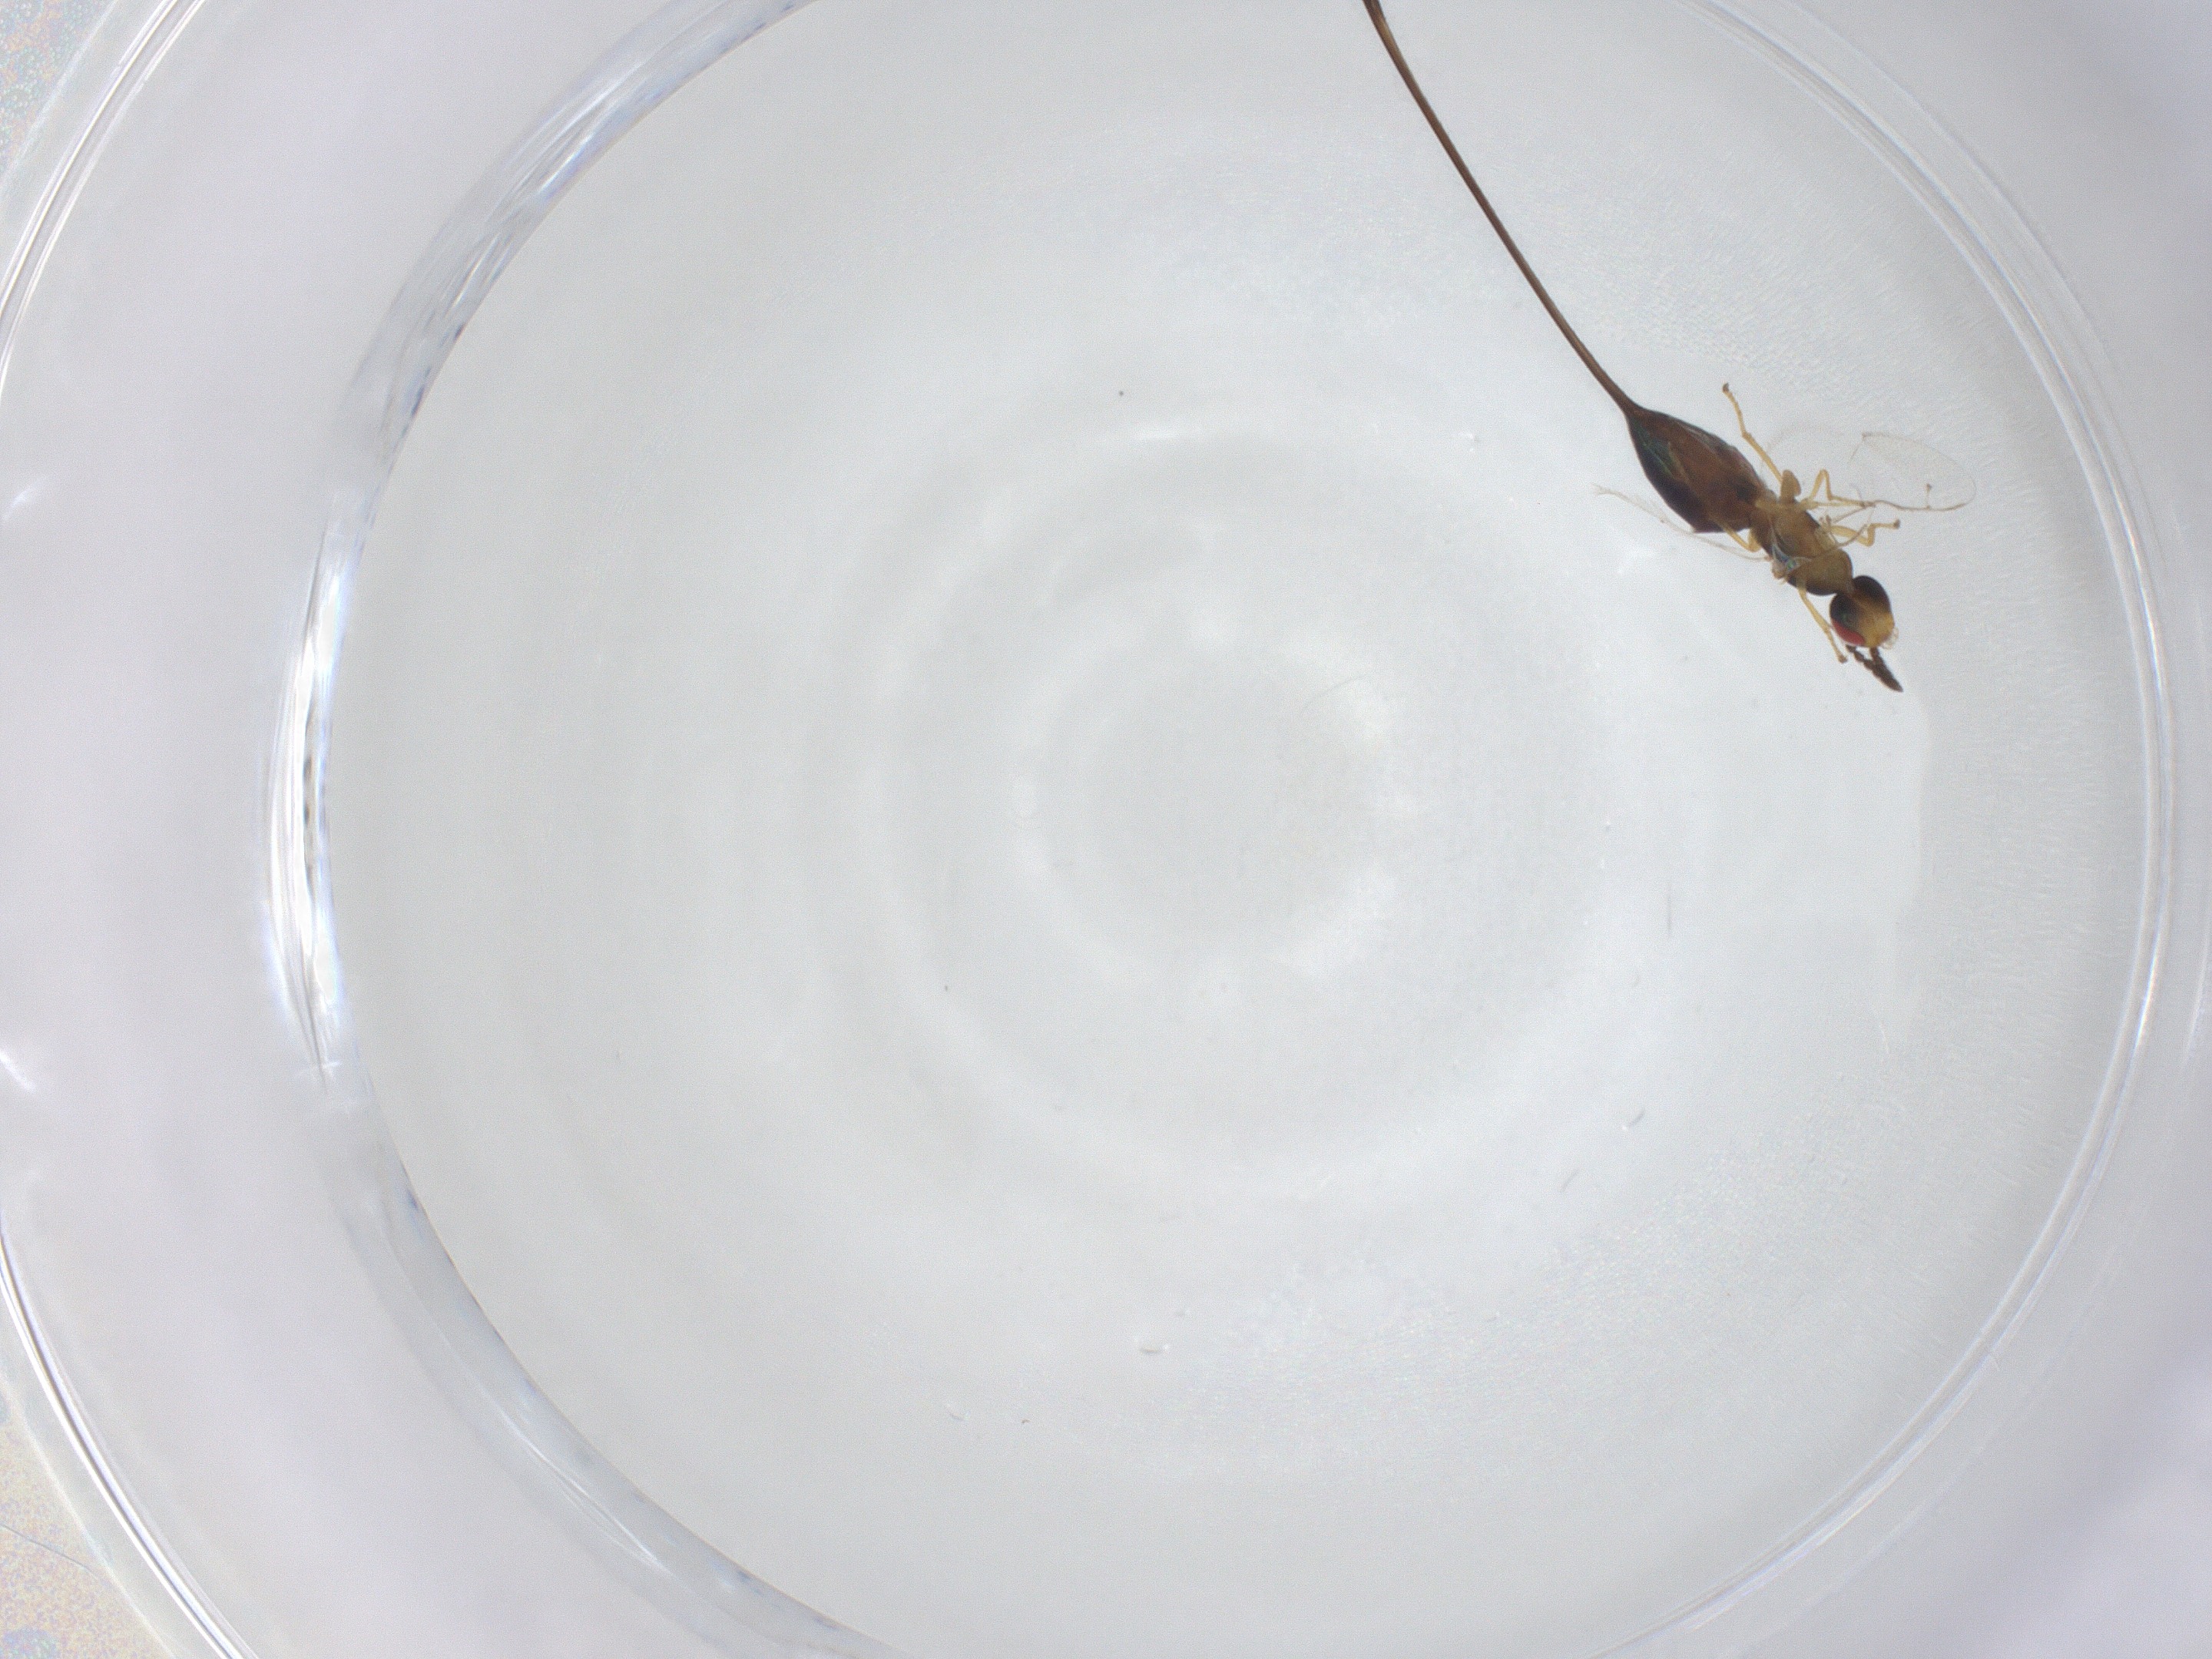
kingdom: Animalia
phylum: Arthropoda
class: Insecta
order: Hymenoptera
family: Pteromalidae
